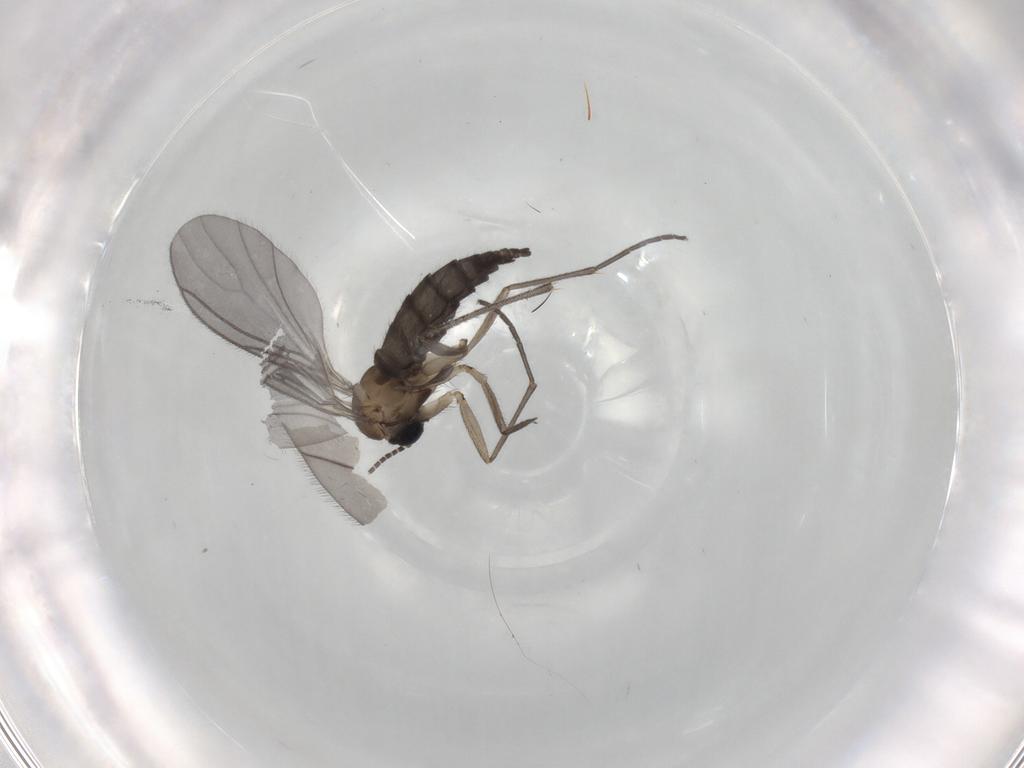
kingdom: Animalia
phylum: Arthropoda
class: Insecta
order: Diptera
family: Sciaridae
